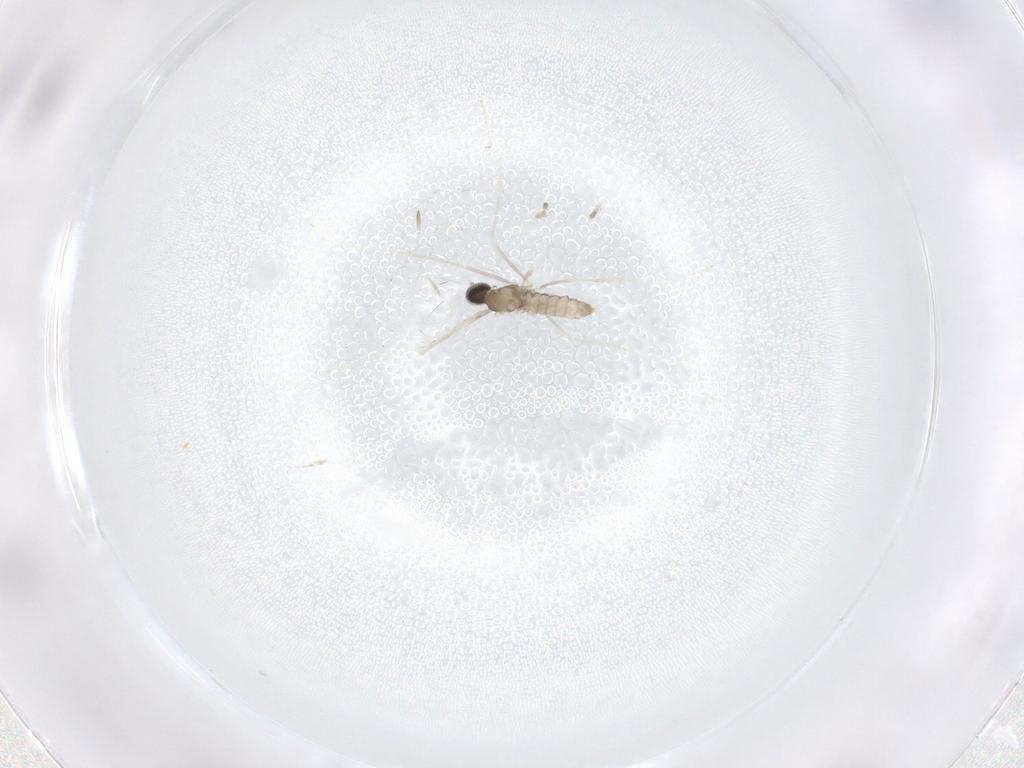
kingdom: Animalia
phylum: Arthropoda
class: Insecta
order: Diptera
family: Cecidomyiidae
